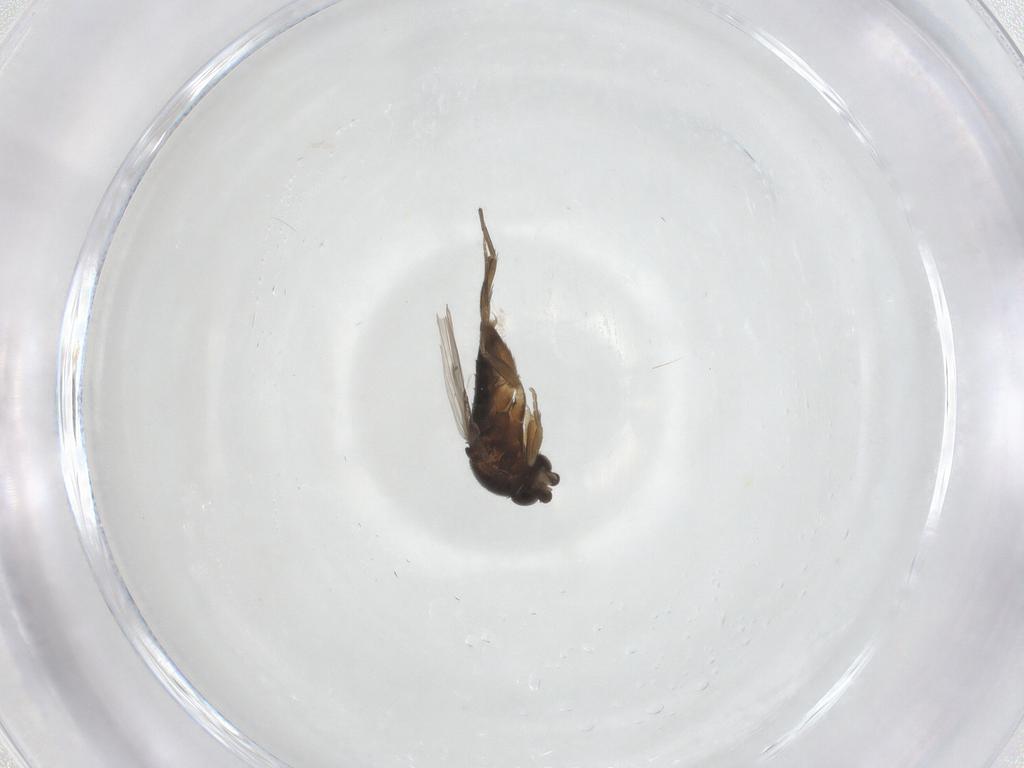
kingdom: Animalia
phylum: Arthropoda
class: Insecta
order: Diptera
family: Phoridae
